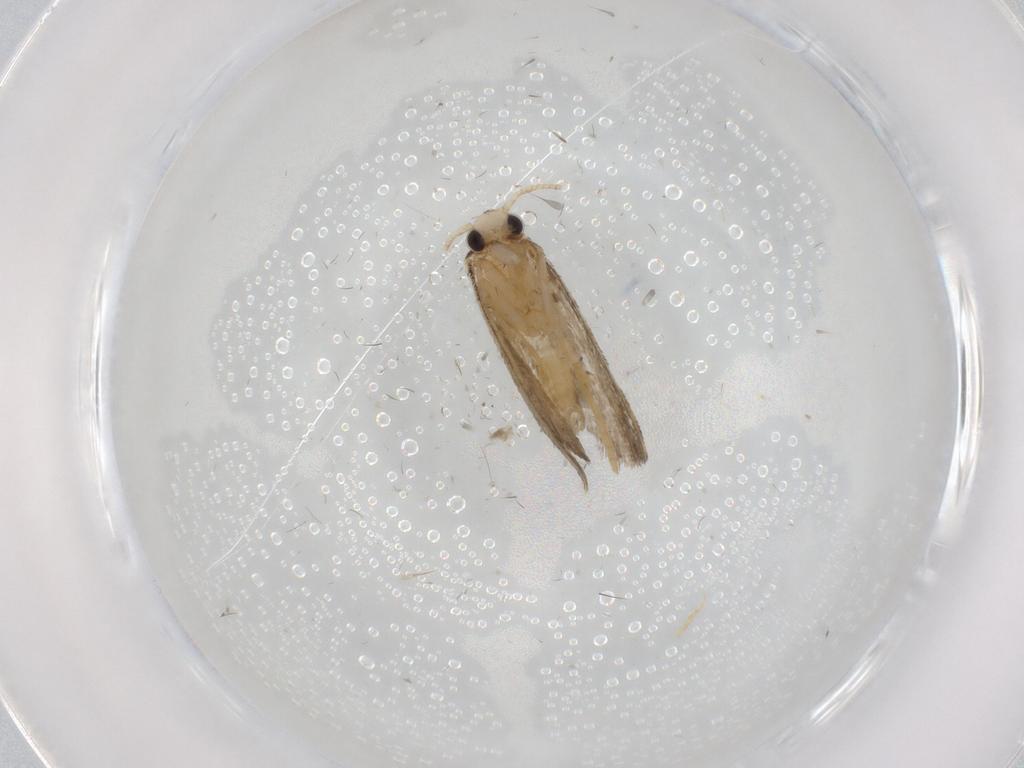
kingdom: Animalia
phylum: Arthropoda
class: Insecta
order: Lepidoptera
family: Psychidae
